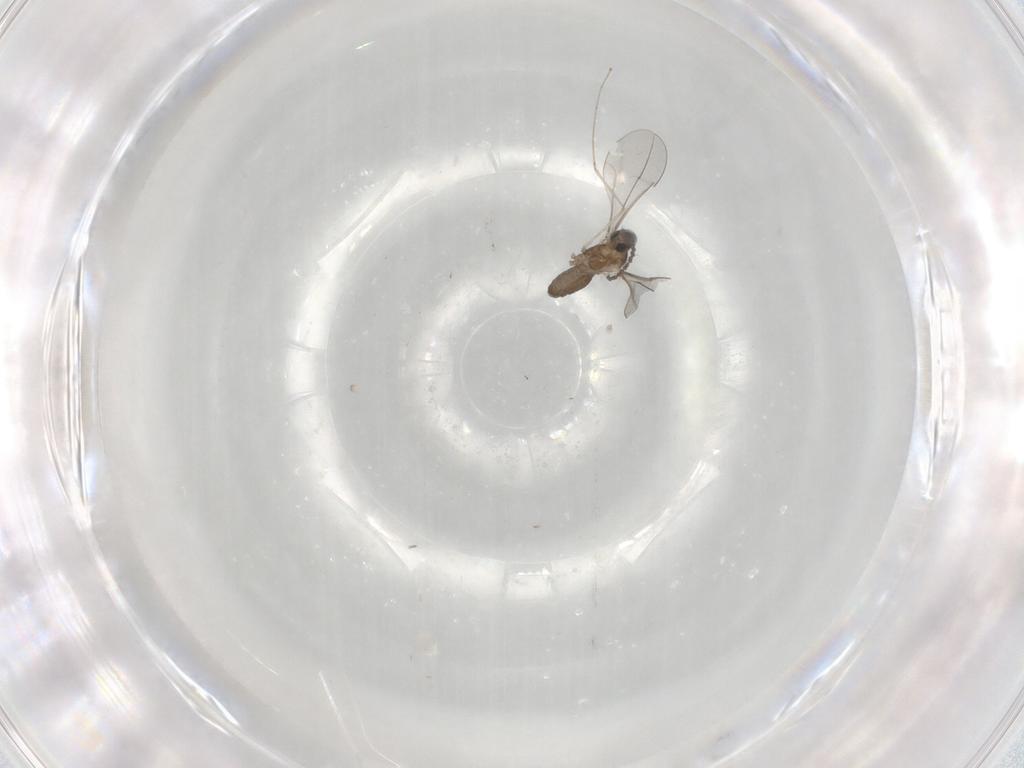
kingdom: Animalia
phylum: Arthropoda
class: Insecta
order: Diptera
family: Cecidomyiidae
